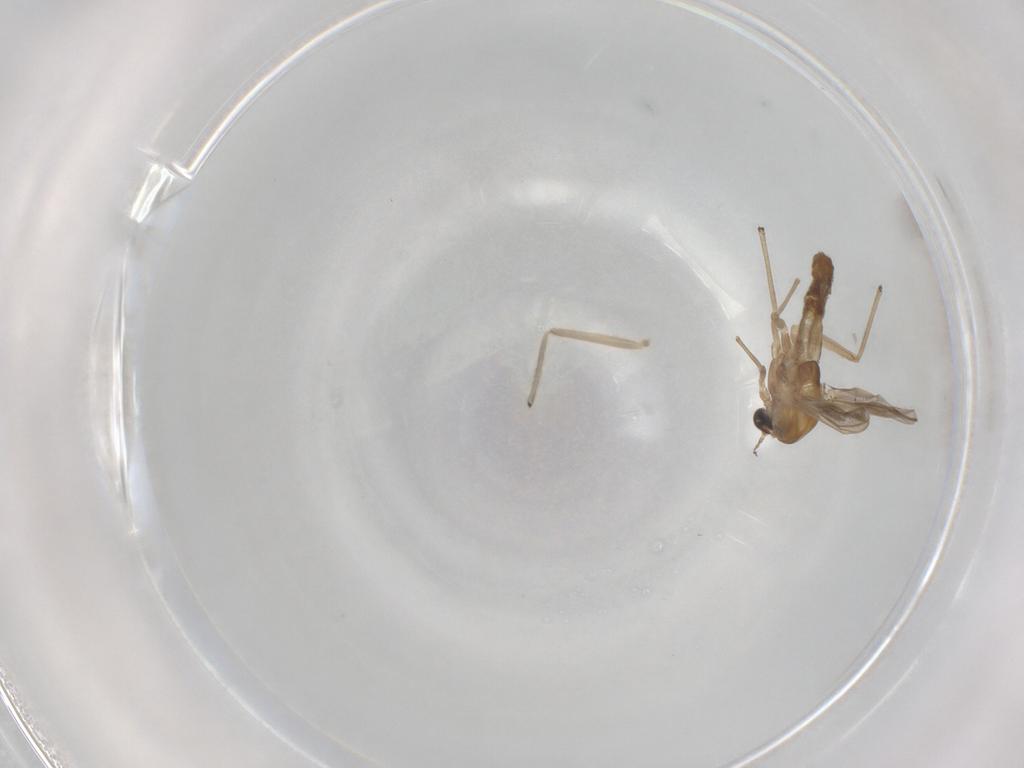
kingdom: Animalia
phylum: Arthropoda
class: Insecta
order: Diptera
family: Chironomidae
